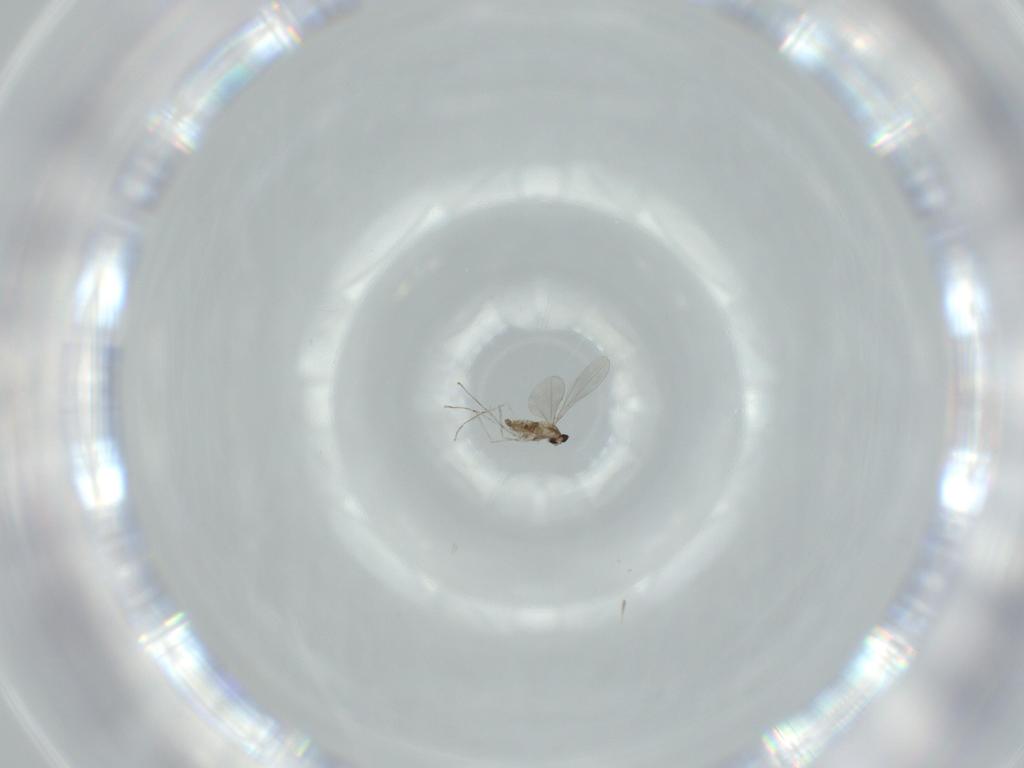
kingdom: Animalia
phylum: Arthropoda
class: Insecta
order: Diptera
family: Cecidomyiidae
